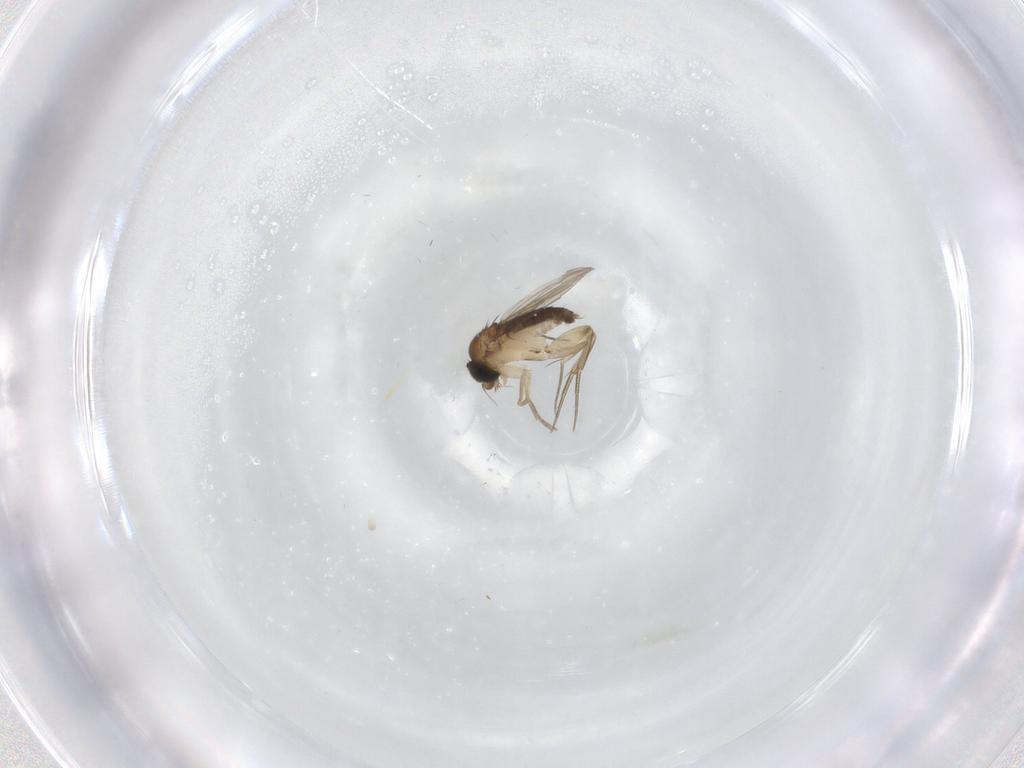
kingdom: Animalia
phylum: Arthropoda
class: Insecta
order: Diptera
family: Phoridae
